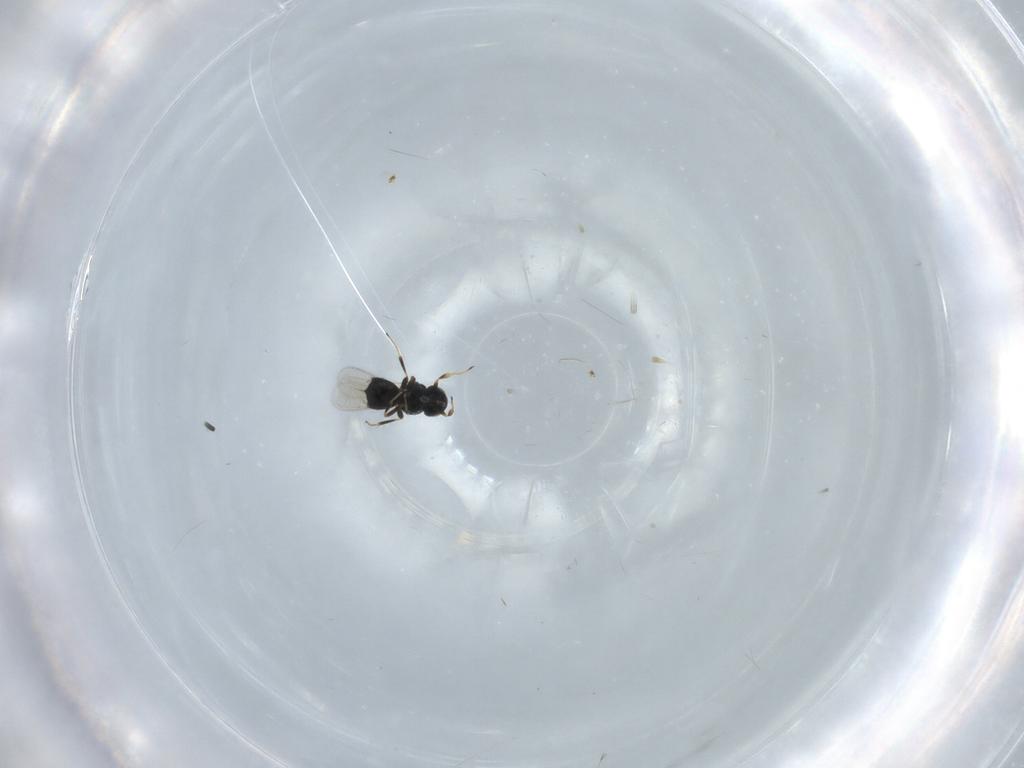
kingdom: Animalia
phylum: Arthropoda
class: Insecta
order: Hymenoptera
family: Scelionidae
